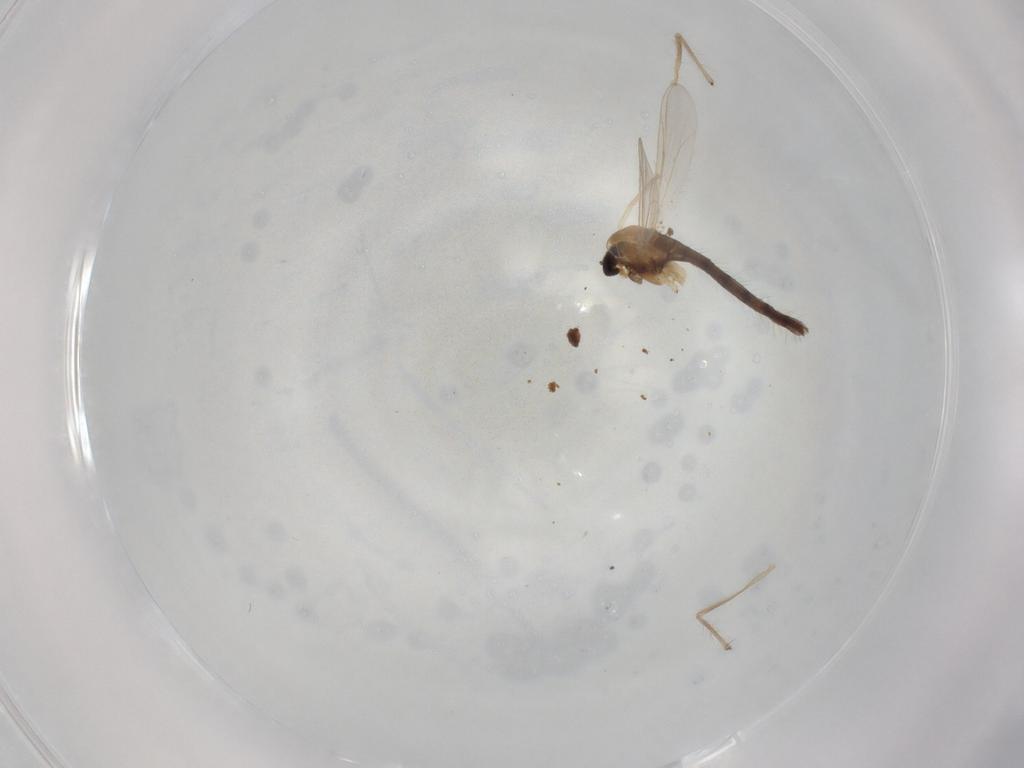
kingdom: Animalia
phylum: Arthropoda
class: Insecta
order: Diptera
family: Chironomidae
